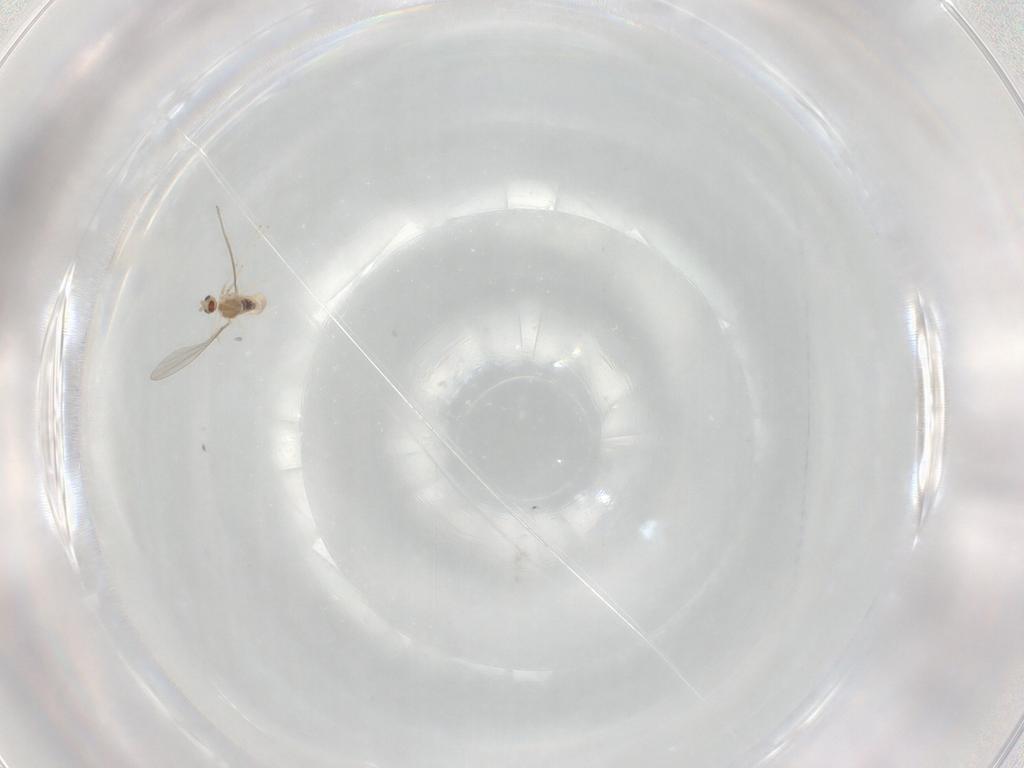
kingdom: Animalia
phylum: Arthropoda
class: Insecta
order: Diptera
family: Cecidomyiidae
